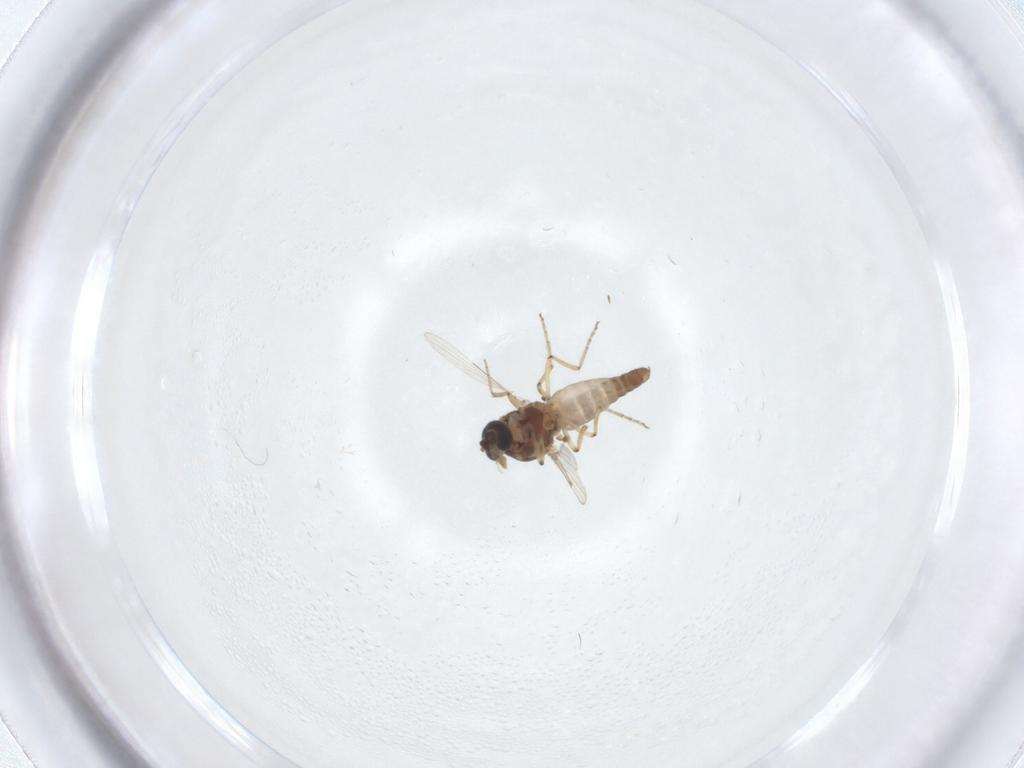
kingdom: Animalia
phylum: Arthropoda
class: Insecta
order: Diptera
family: Ceratopogonidae
